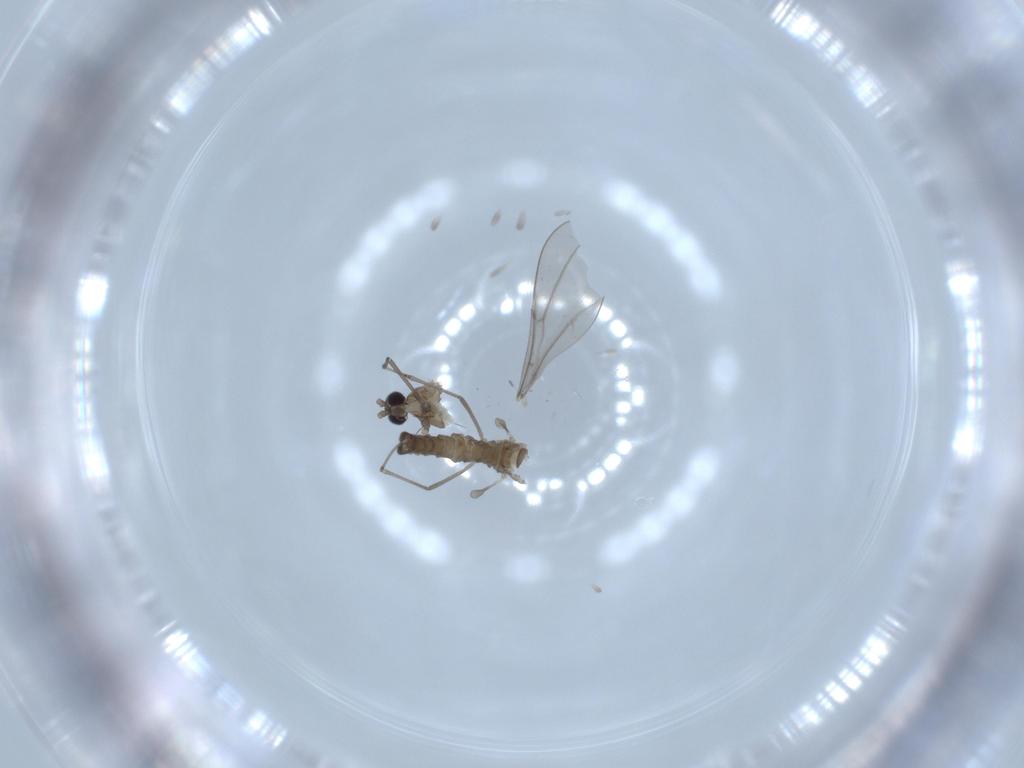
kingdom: Animalia
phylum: Arthropoda
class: Insecta
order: Diptera
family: Cecidomyiidae
